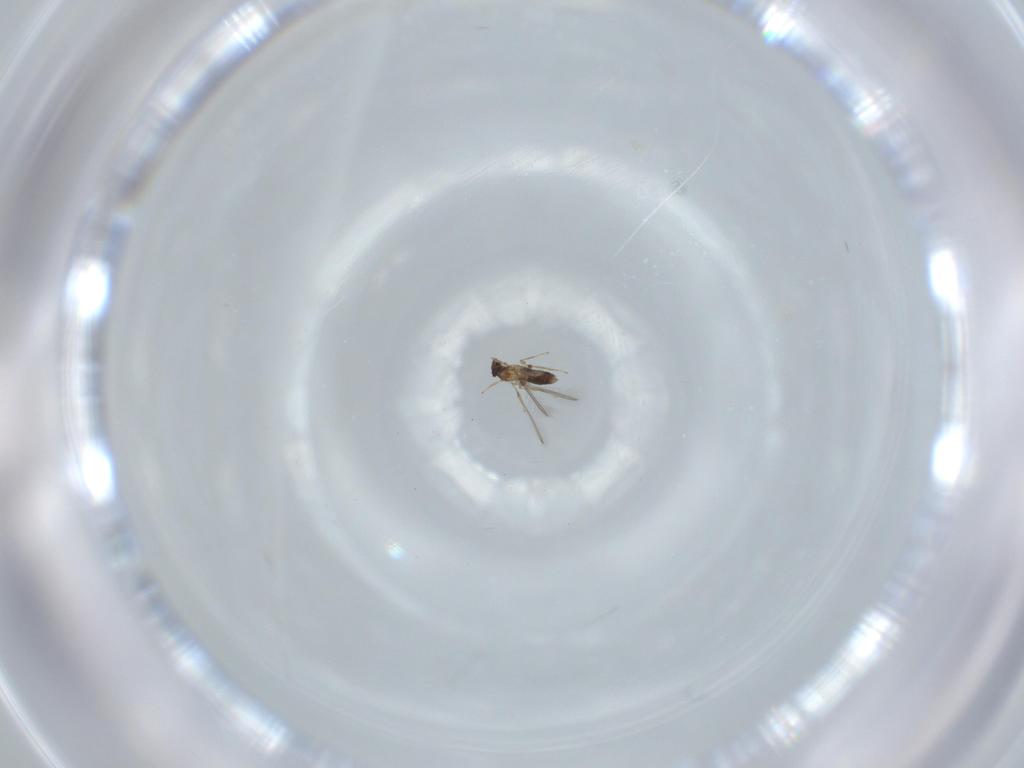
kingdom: Animalia
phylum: Arthropoda
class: Insecta
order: Hymenoptera
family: Mymaridae
